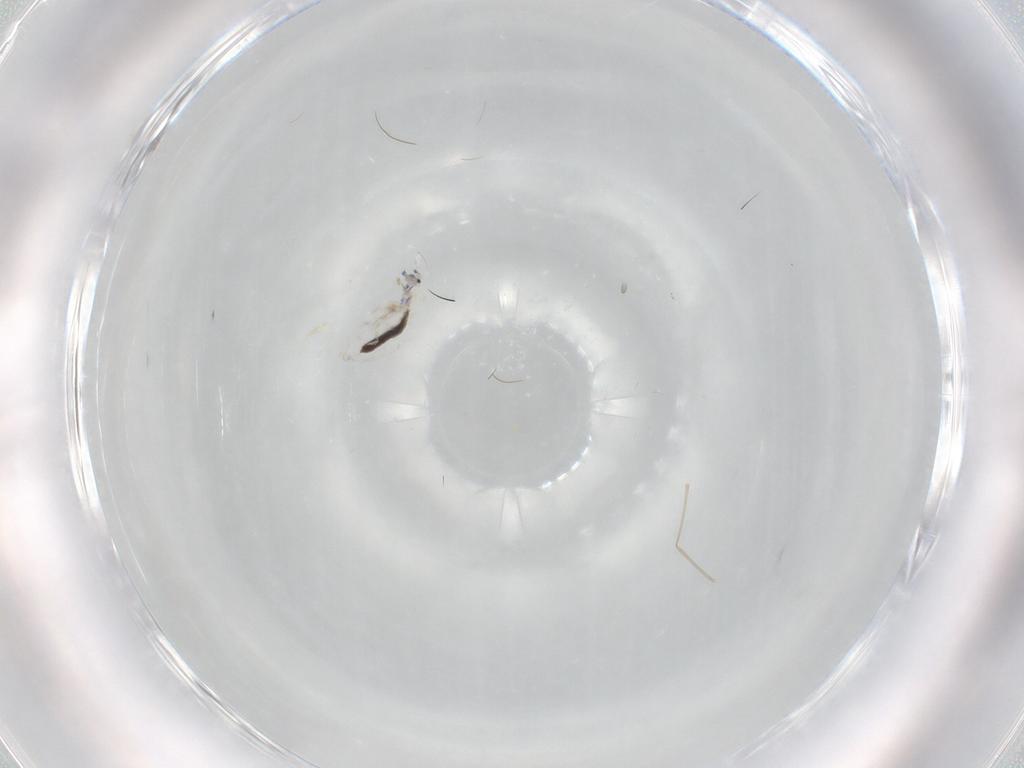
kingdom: Animalia
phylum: Arthropoda
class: Collembola
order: Entomobryomorpha
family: Entomobryidae
